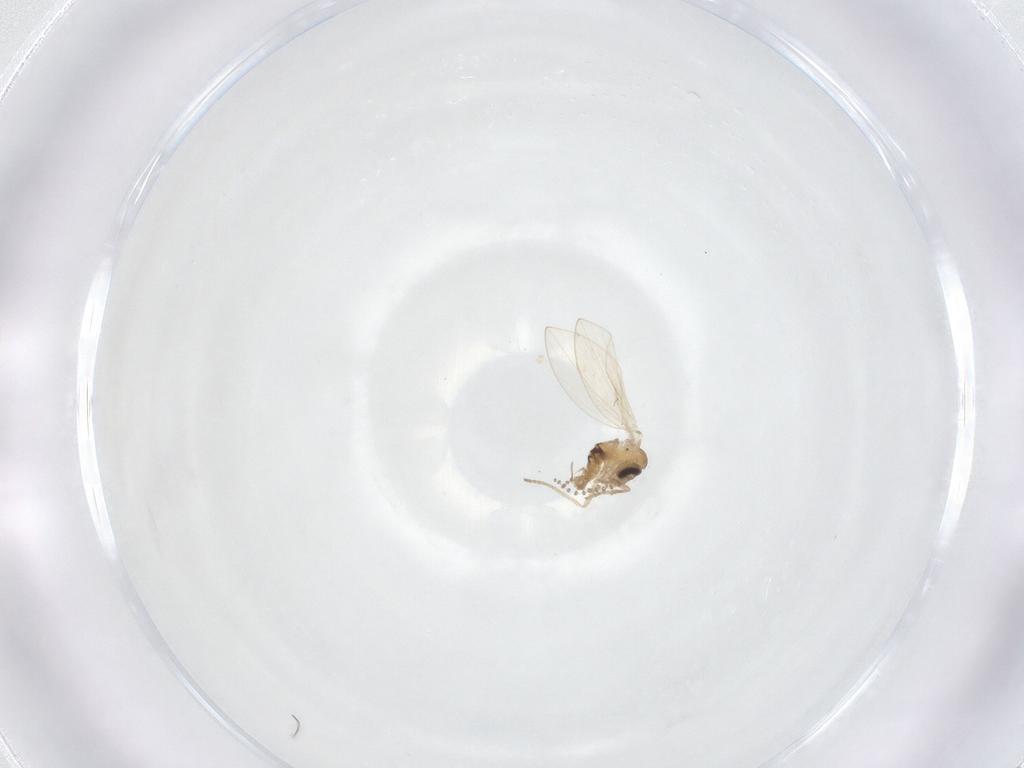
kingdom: Animalia
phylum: Arthropoda
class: Insecta
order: Diptera
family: Psychodidae
